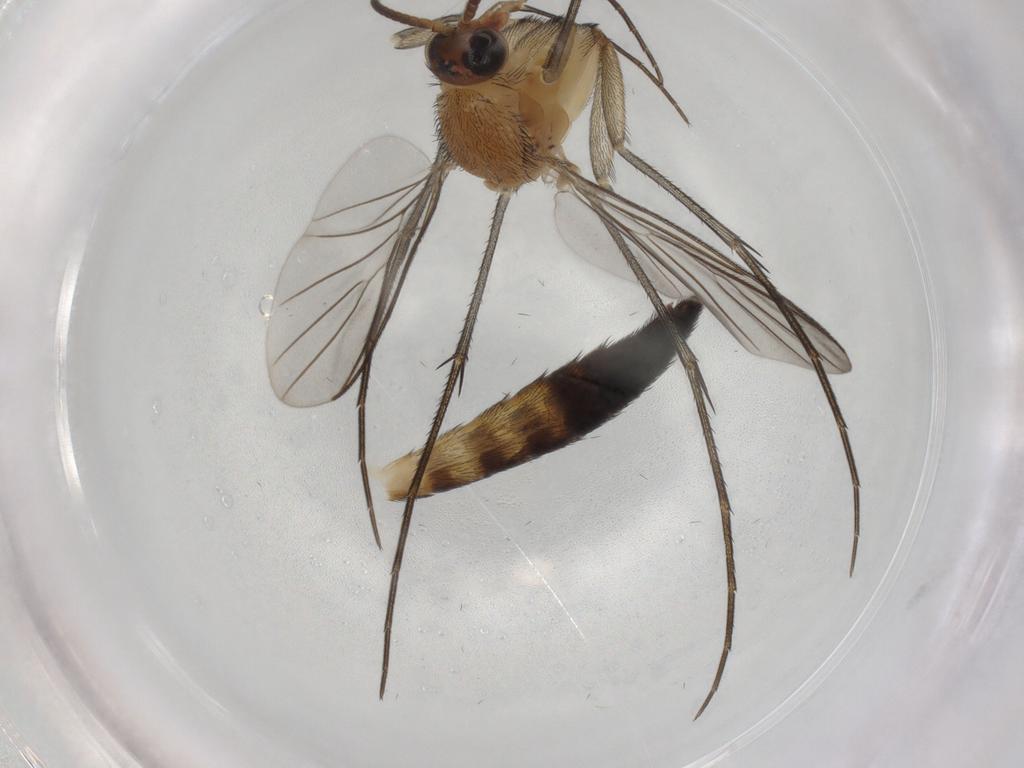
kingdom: Animalia
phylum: Arthropoda
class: Insecta
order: Diptera
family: Keroplatidae
